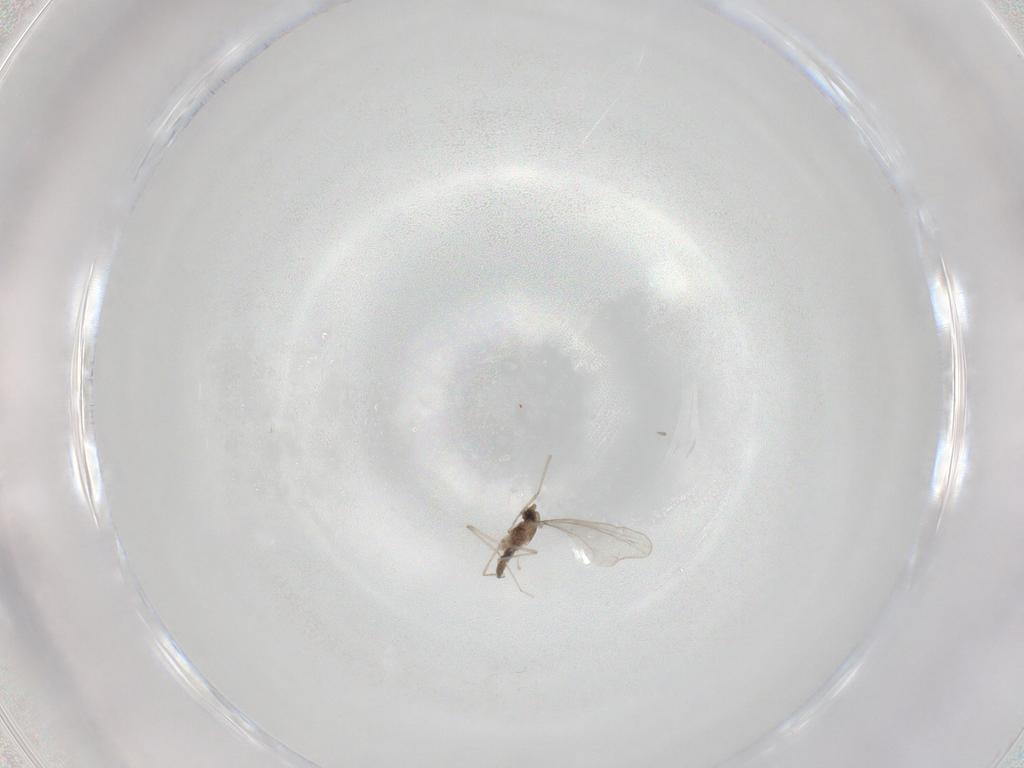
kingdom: Animalia
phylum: Arthropoda
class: Insecta
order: Diptera
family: Cecidomyiidae
